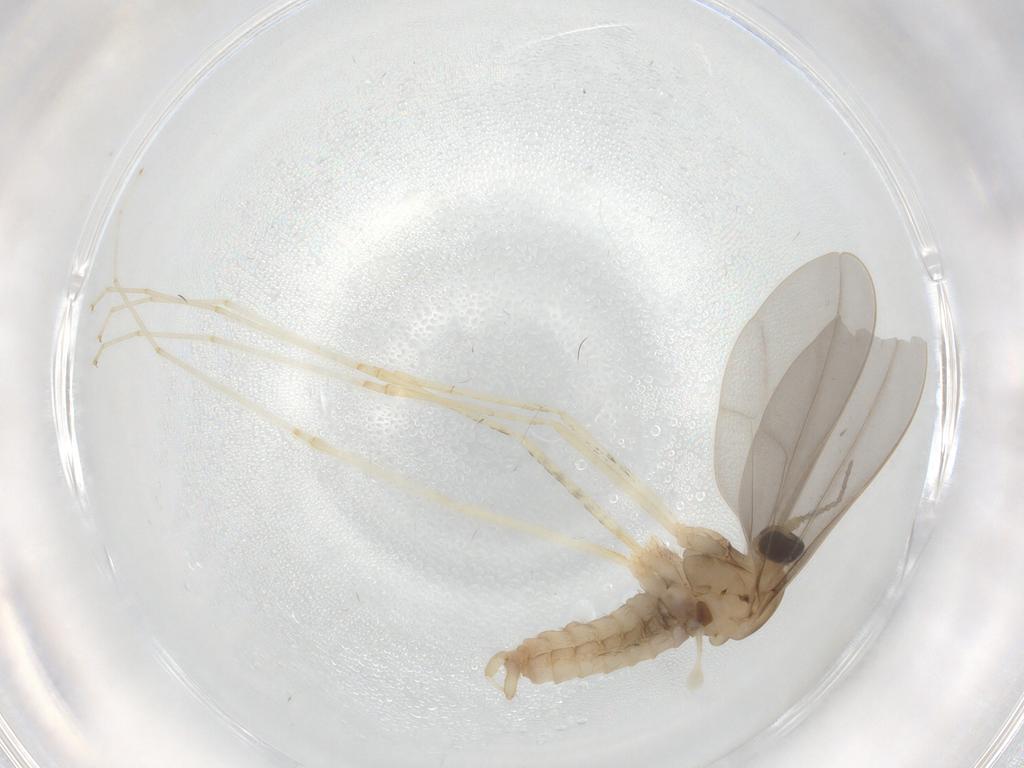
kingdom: Animalia
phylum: Arthropoda
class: Insecta
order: Diptera
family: Cecidomyiidae
